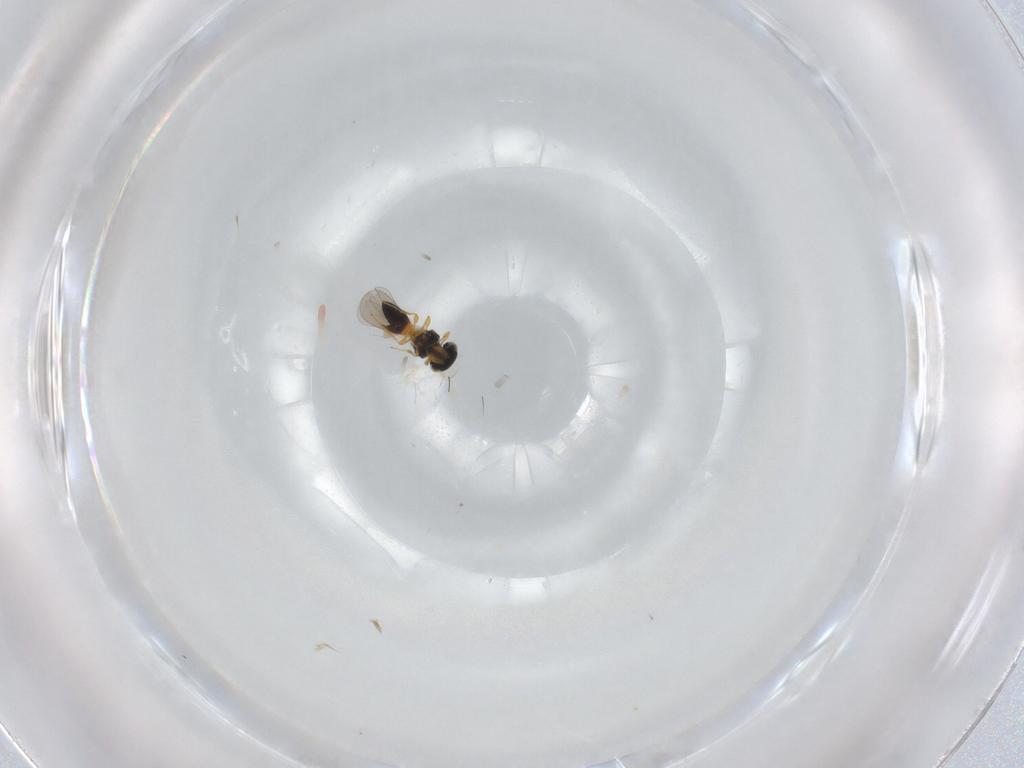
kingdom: Animalia
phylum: Arthropoda
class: Insecta
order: Hymenoptera
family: Platygastridae
